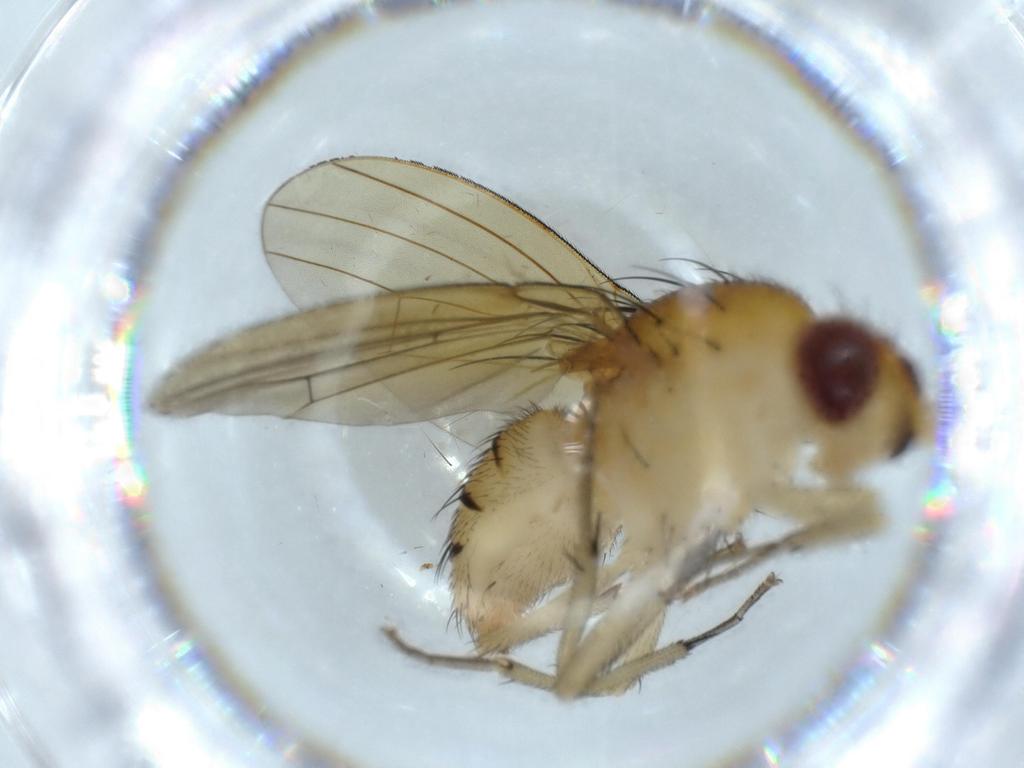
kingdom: Animalia
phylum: Arthropoda
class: Insecta
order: Diptera
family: Ceratopogonidae
